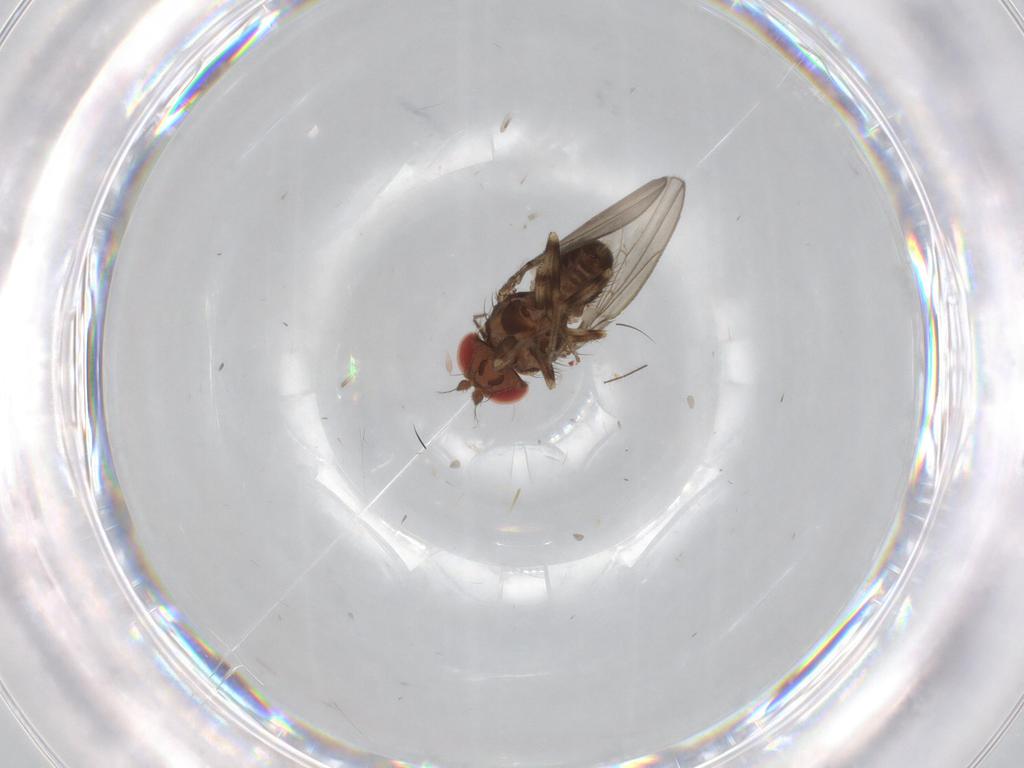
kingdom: Animalia
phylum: Arthropoda
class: Insecta
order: Diptera
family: Drosophilidae
